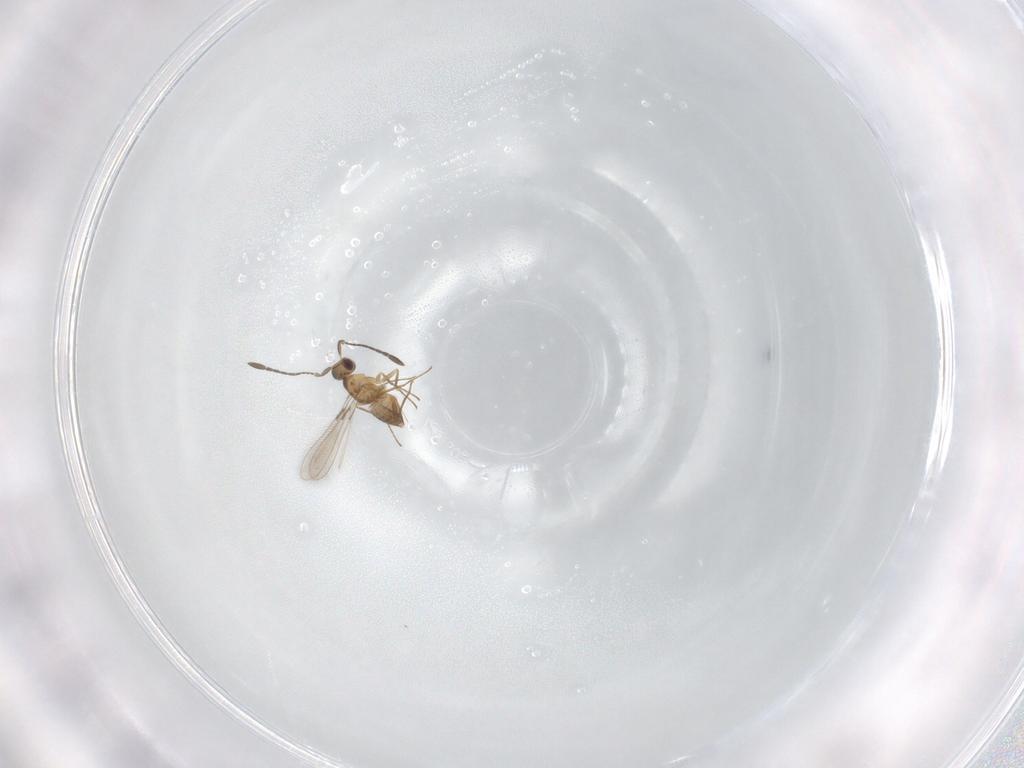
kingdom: Animalia
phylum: Arthropoda
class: Insecta
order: Hymenoptera
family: Mymaridae
